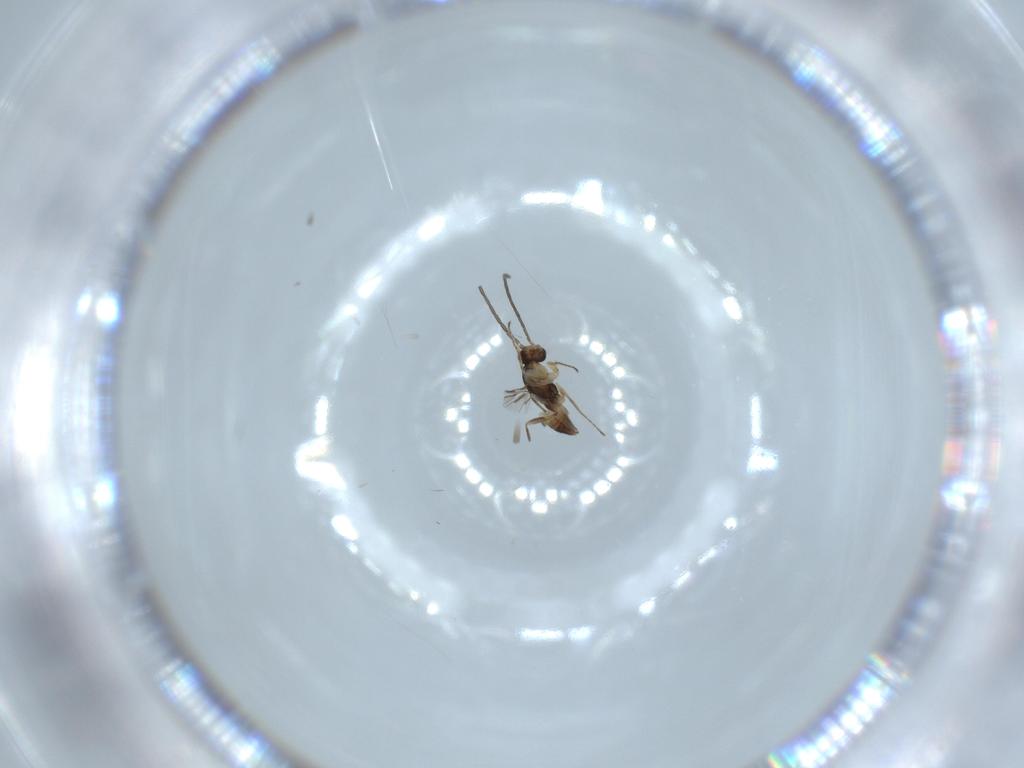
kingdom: Animalia
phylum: Arthropoda
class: Insecta
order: Hymenoptera
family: Mymaridae
